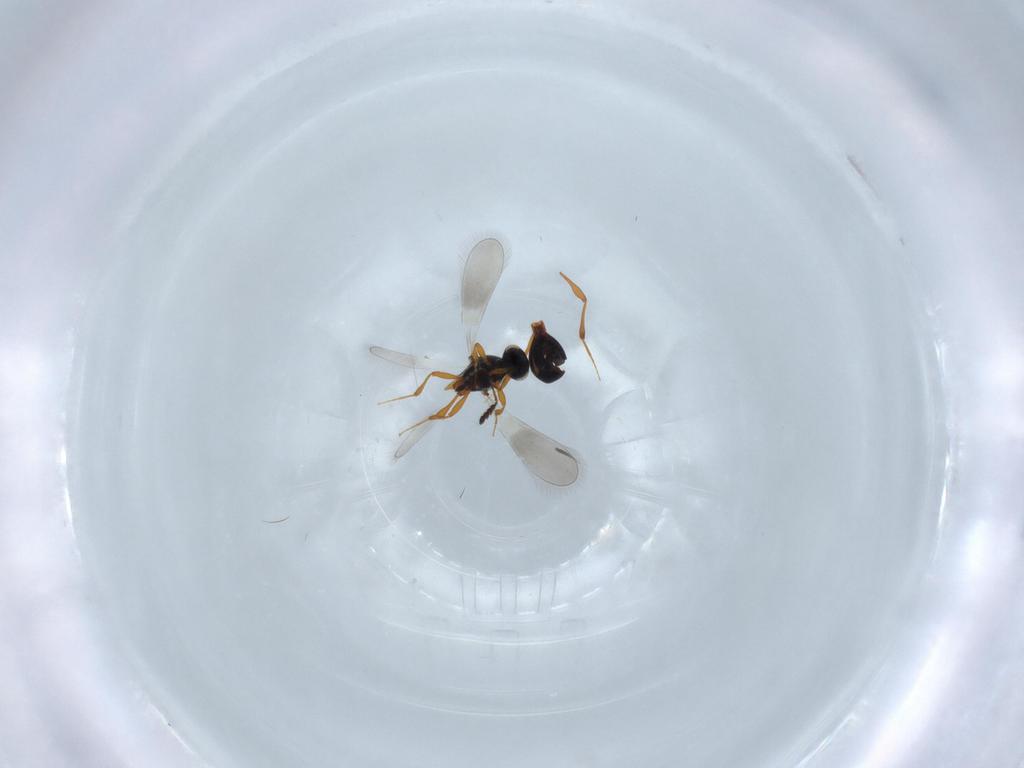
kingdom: Animalia
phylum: Arthropoda
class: Insecta
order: Hymenoptera
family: Platygastridae
